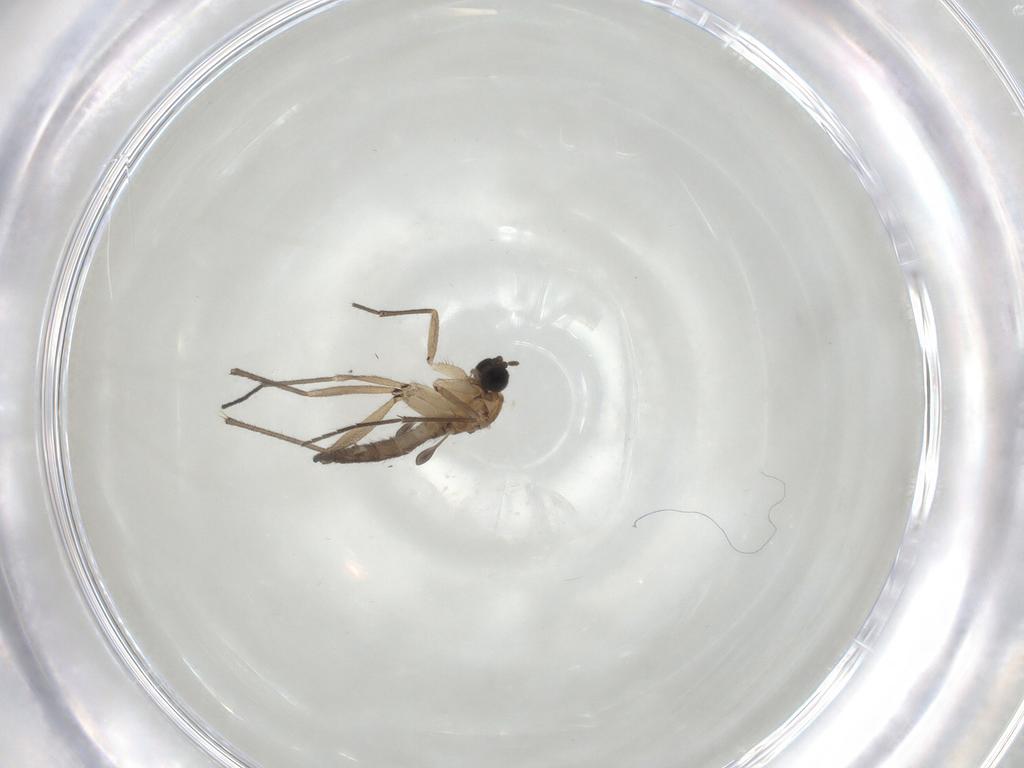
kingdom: Animalia
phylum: Arthropoda
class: Insecta
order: Diptera
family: Sciaridae
